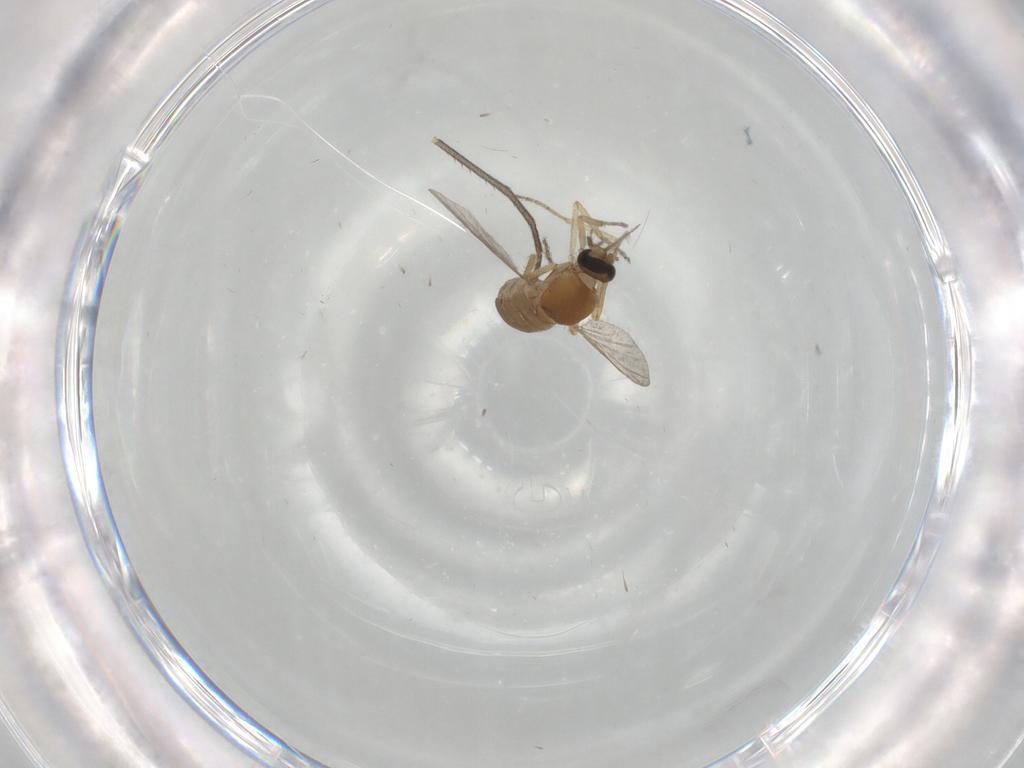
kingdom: Animalia
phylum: Arthropoda
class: Insecta
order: Diptera
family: Ceratopogonidae
